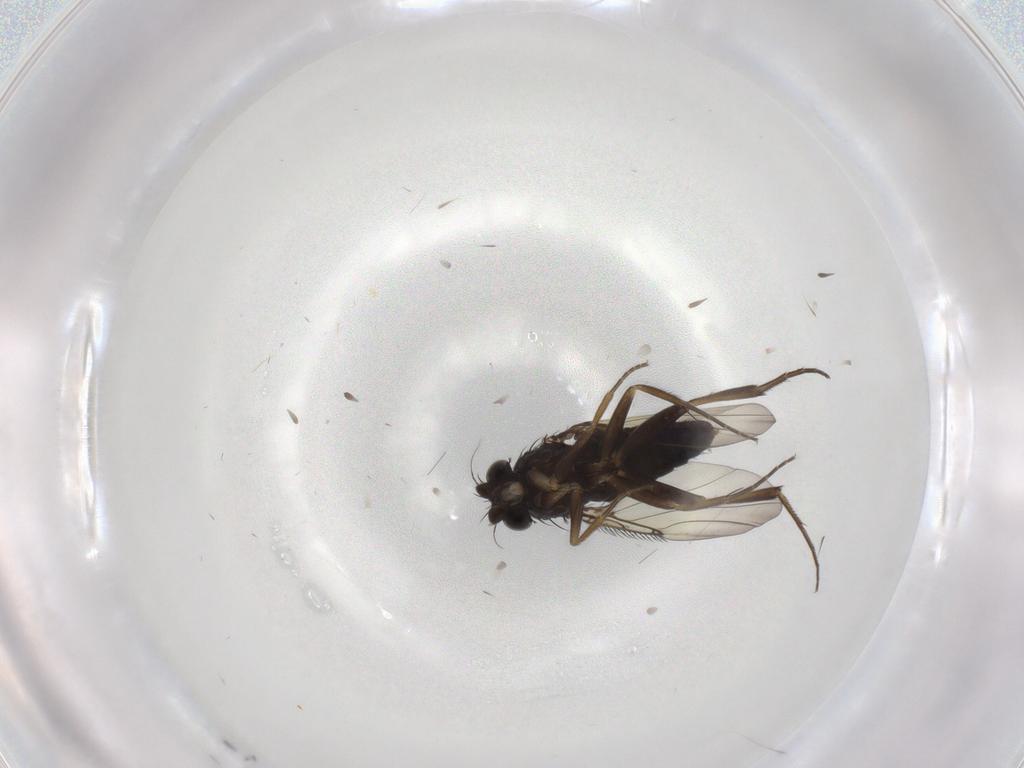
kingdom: Animalia
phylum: Arthropoda
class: Insecta
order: Diptera
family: Phoridae
